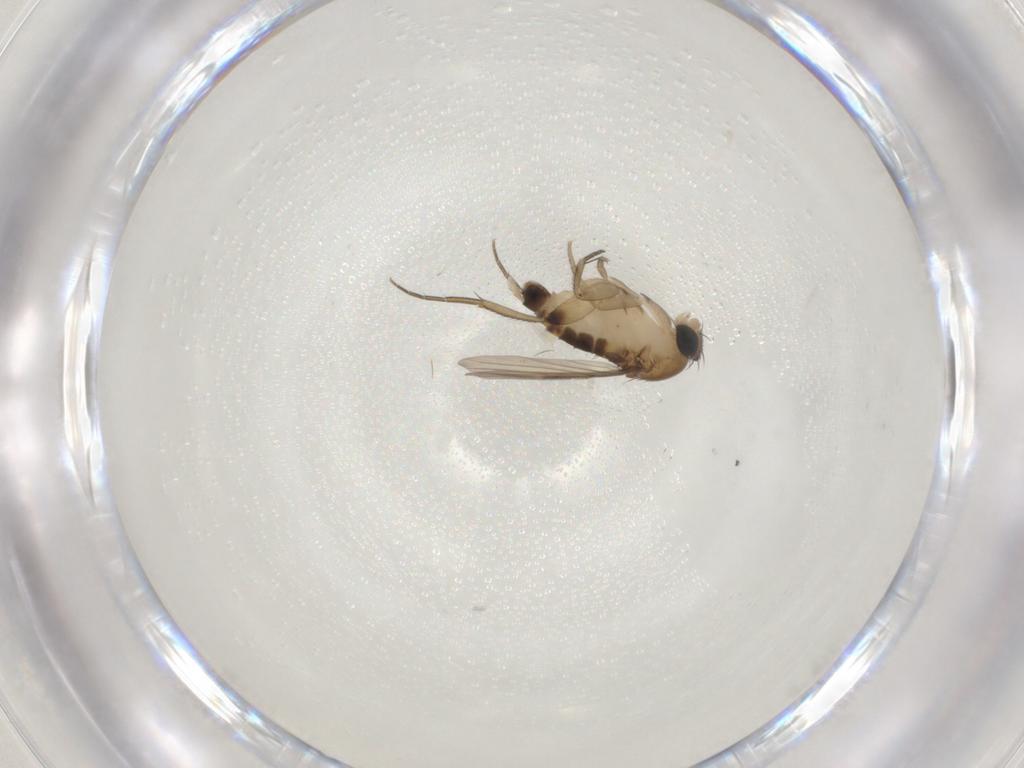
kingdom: Animalia
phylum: Arthropoda
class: Insecta
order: Diptera
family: Phoridae
